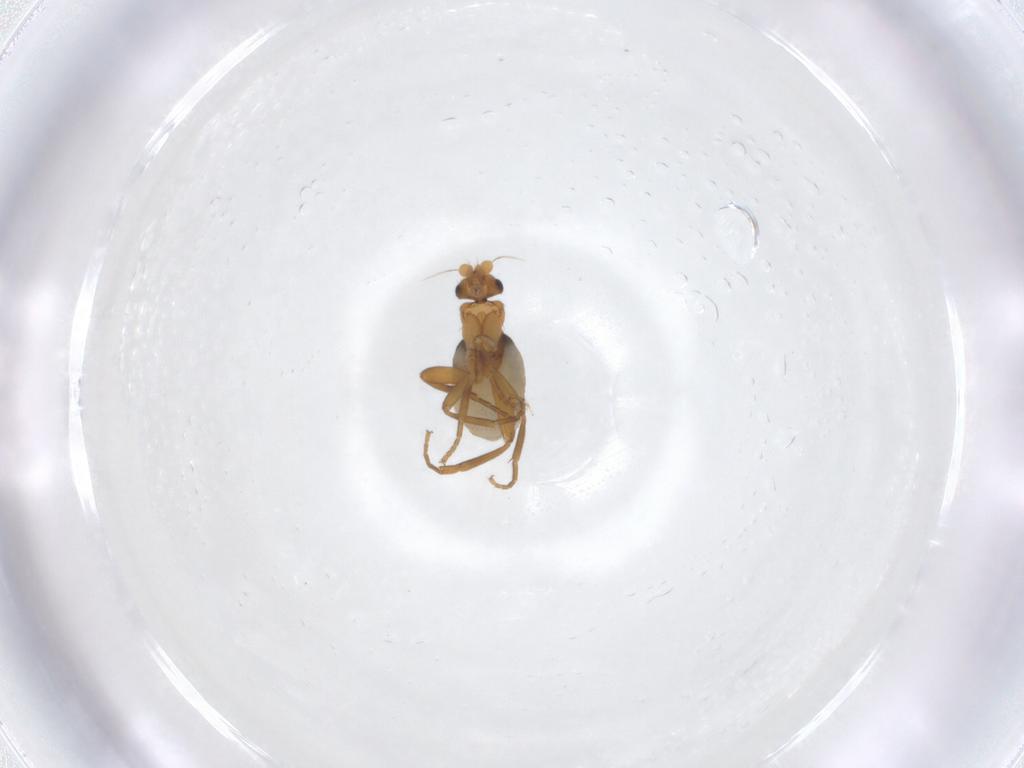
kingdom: Animalia
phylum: Arthropoda
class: Insecta
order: Diptera
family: Phoridae
